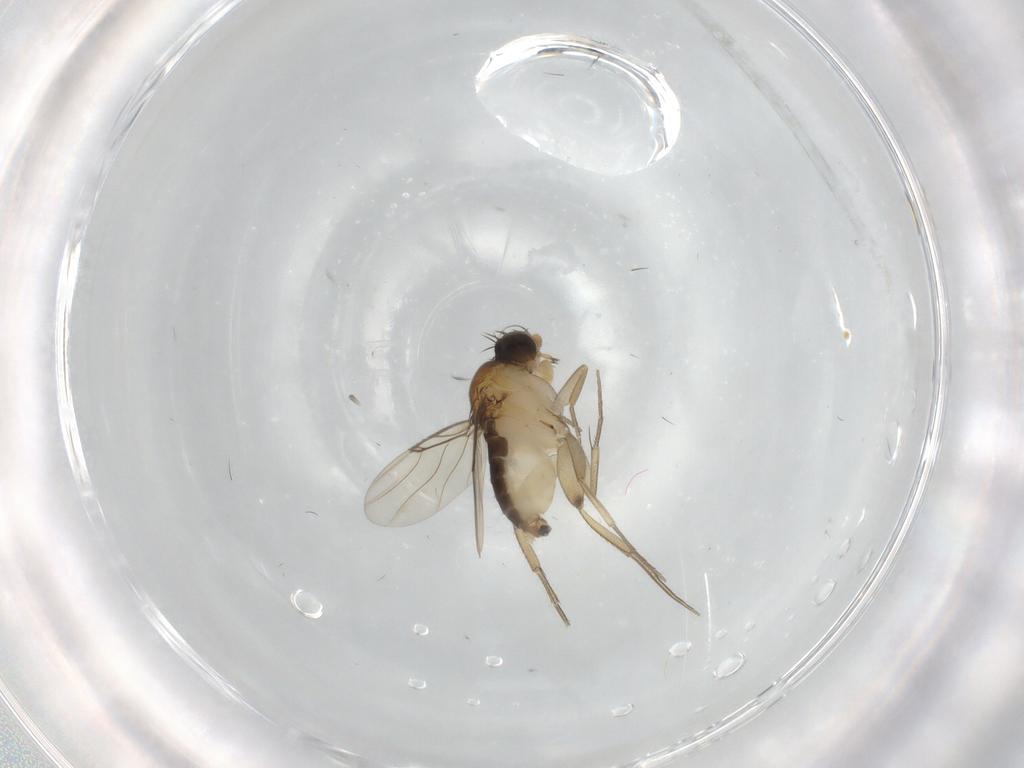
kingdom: Animalia
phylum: Arthropoda
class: Insecta
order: Diptera
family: Phoridae
